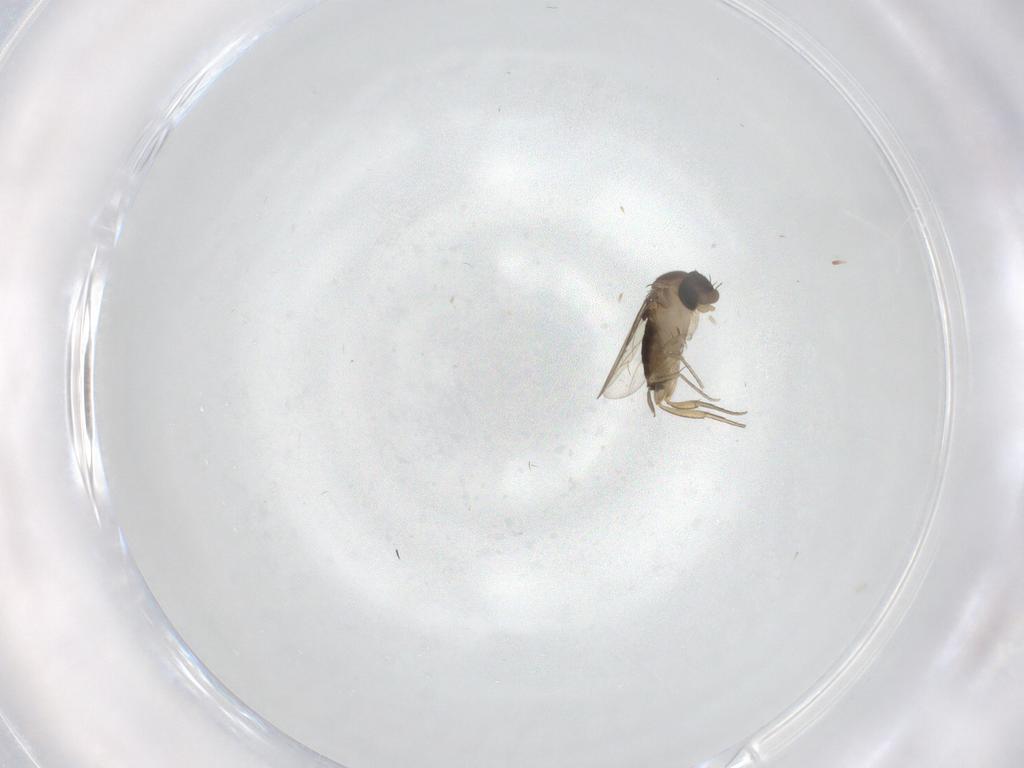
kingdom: Animalia
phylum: Arthropoda
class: Insecta
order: Diptera
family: Phoridae
